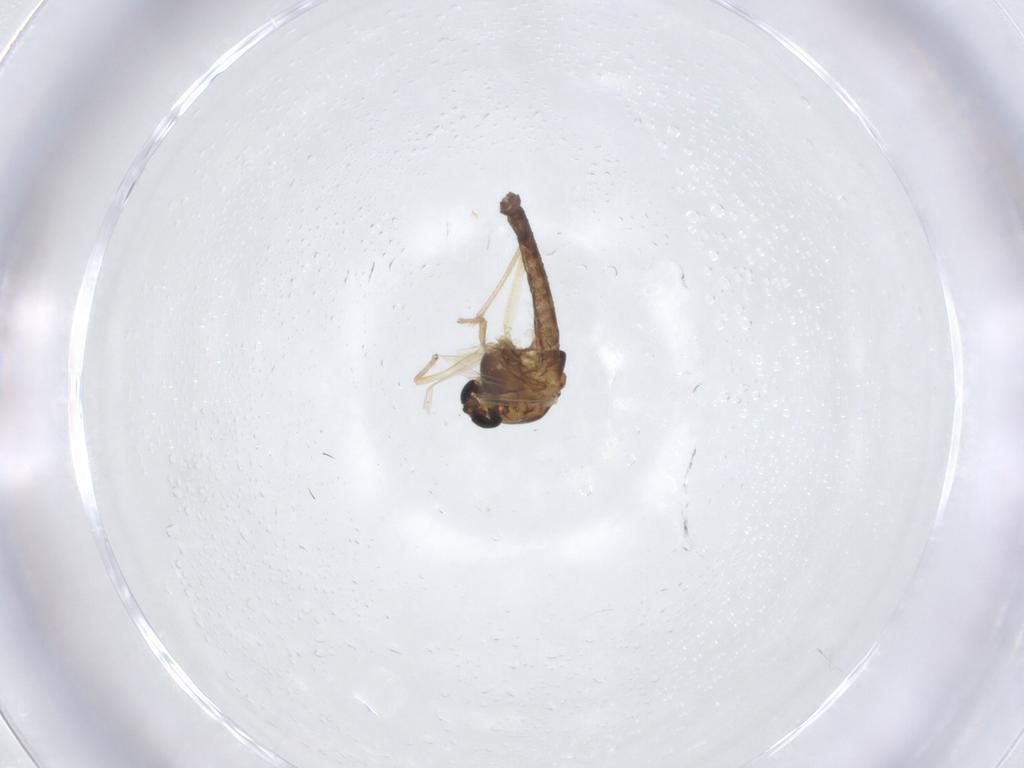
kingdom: Animalia
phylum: Arthropoda
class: Insecta
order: Diptera
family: Chironomidae
